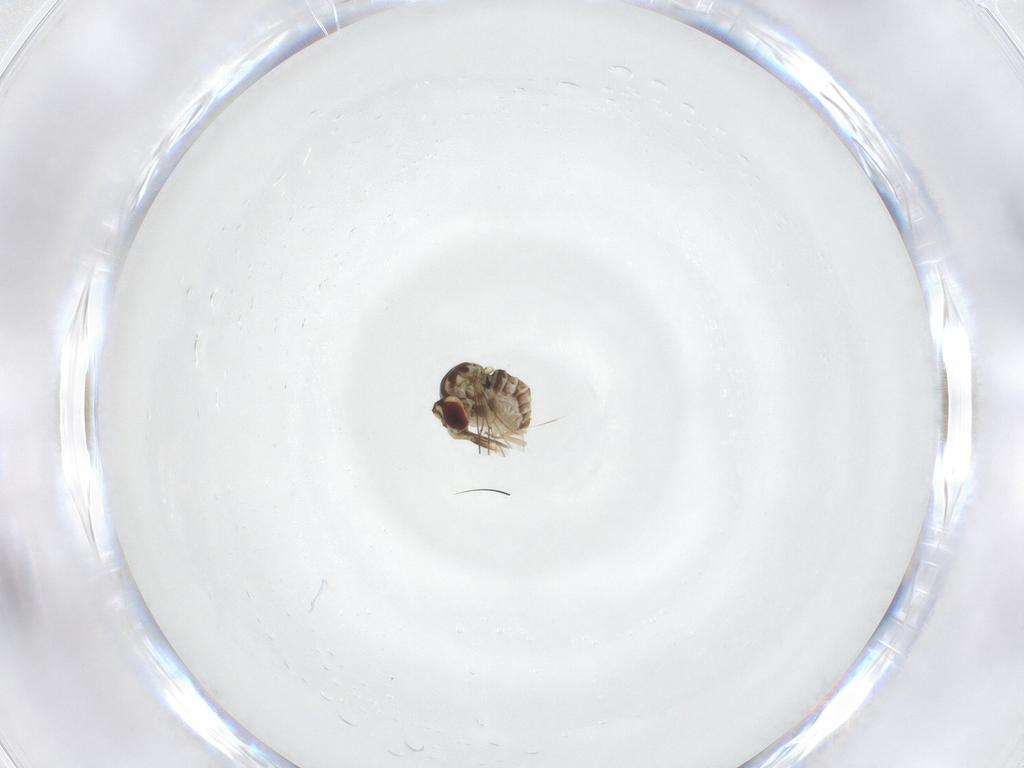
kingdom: Animalia
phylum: Arthropoda
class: Insecta
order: Diptera
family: Bombyliidae
